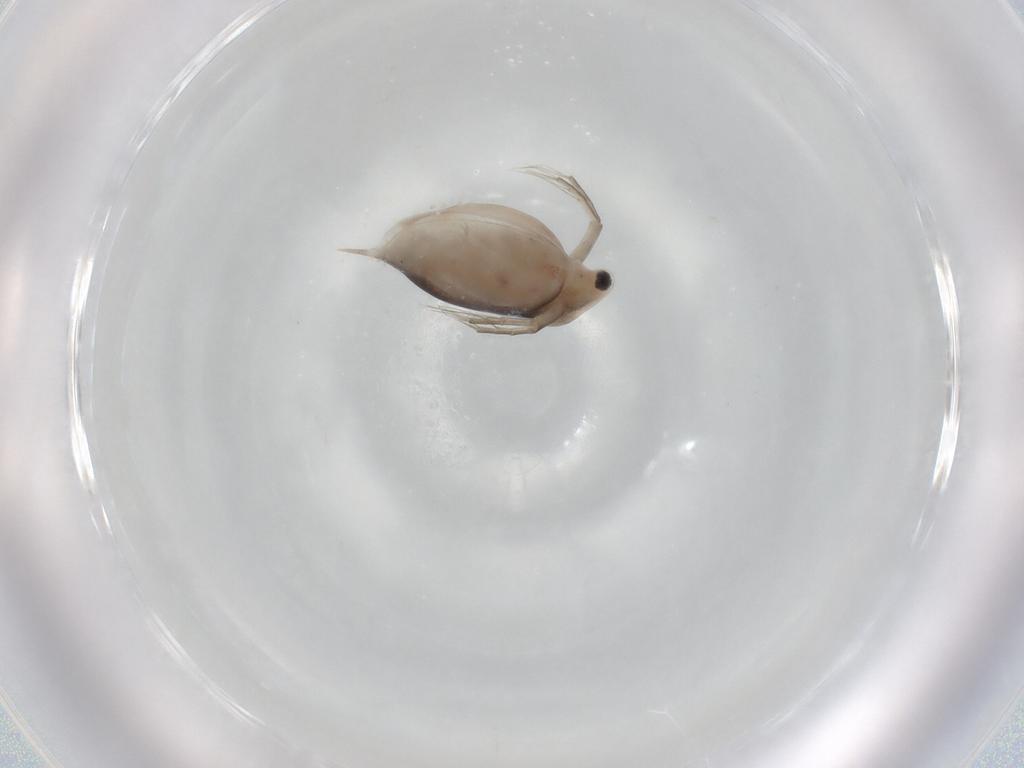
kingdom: Animalia
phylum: Arthropoda
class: Branchiopoda
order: Diplostraca
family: Daphniidae
